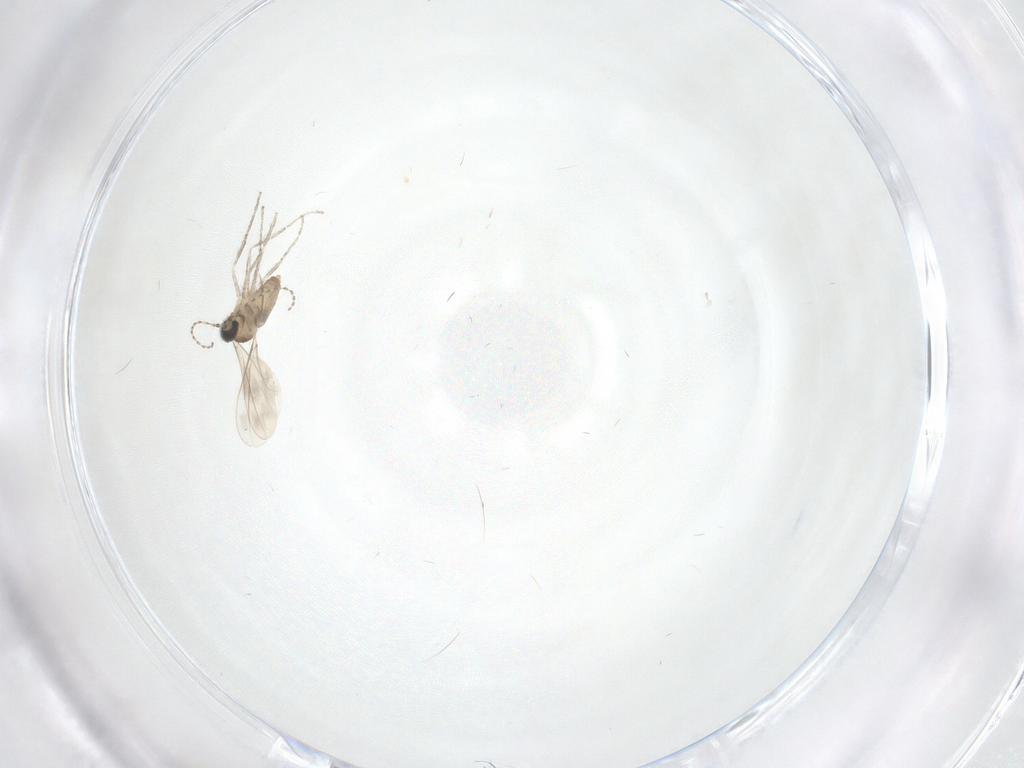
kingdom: Animalia
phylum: Arthropoda
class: Insecta
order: Diptera
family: Cecidomyiidae
